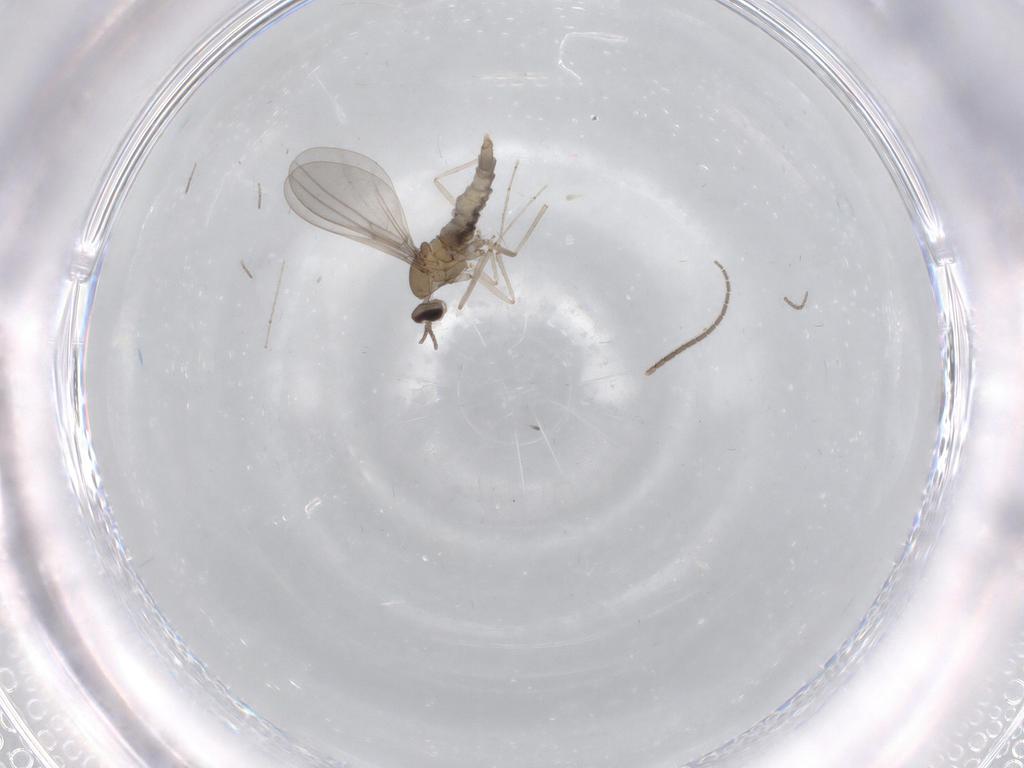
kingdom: Animalia
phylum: Arthropoda
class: Insecta
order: Diptera
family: Cecidomyiidae
